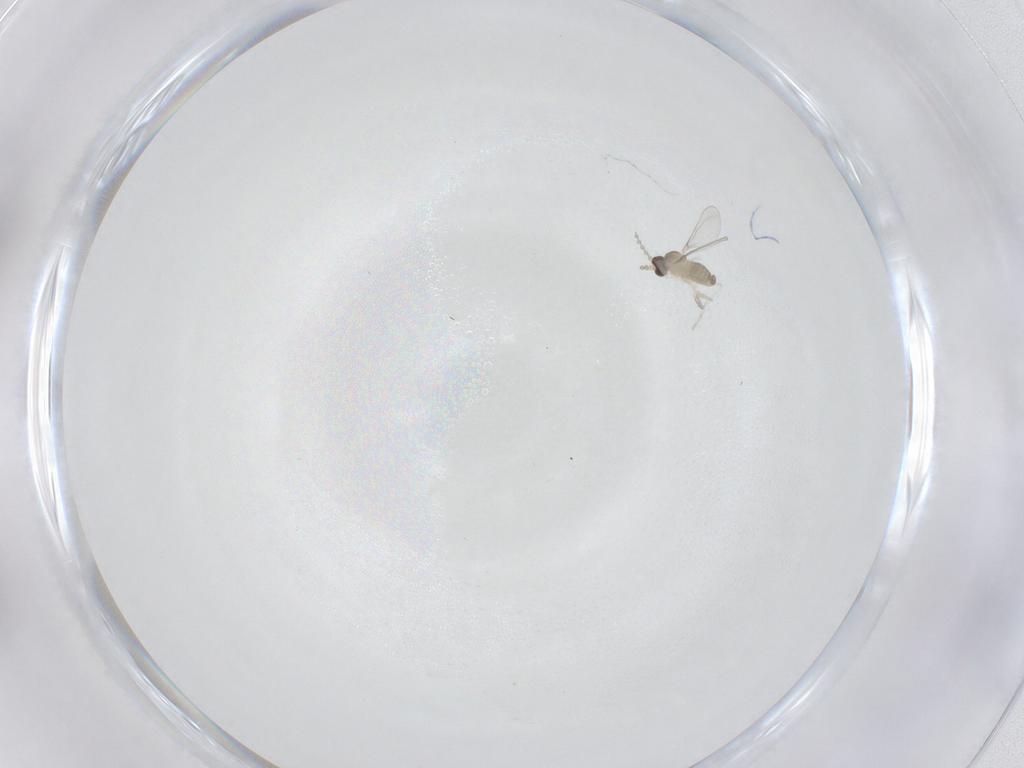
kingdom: Animalia
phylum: Arthropoda
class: Insecta
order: Diptera
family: Cecidomyiidae
